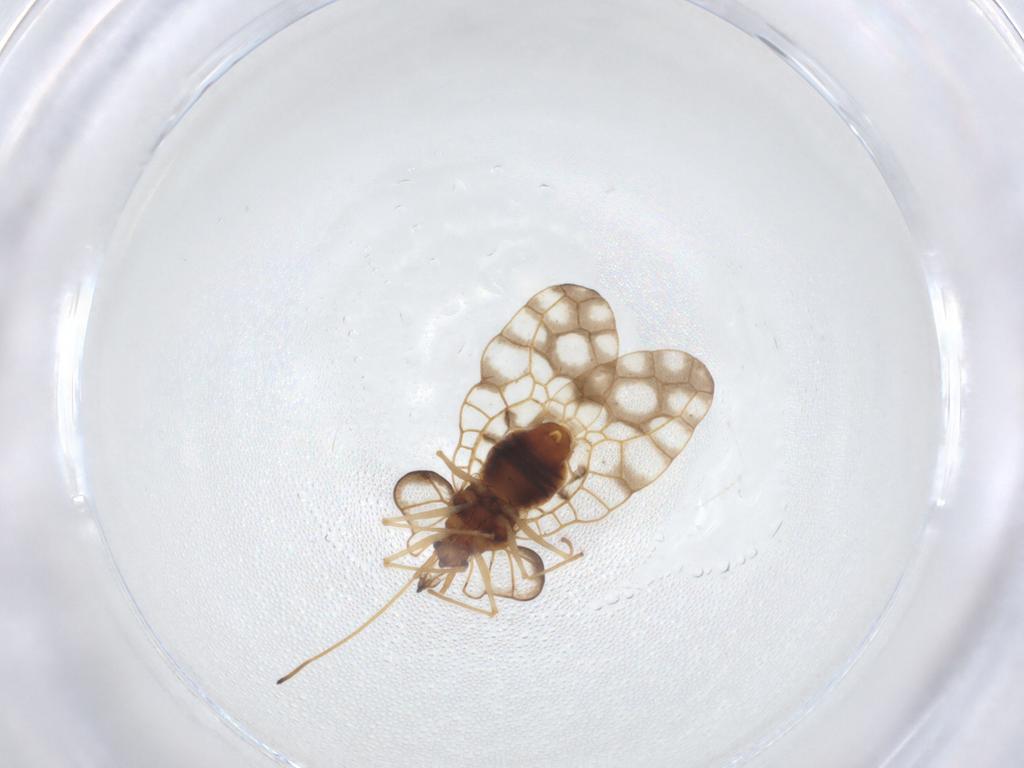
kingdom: Animalia
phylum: Arthropoda
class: Insecta
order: Hemiptera
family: Tingidae
